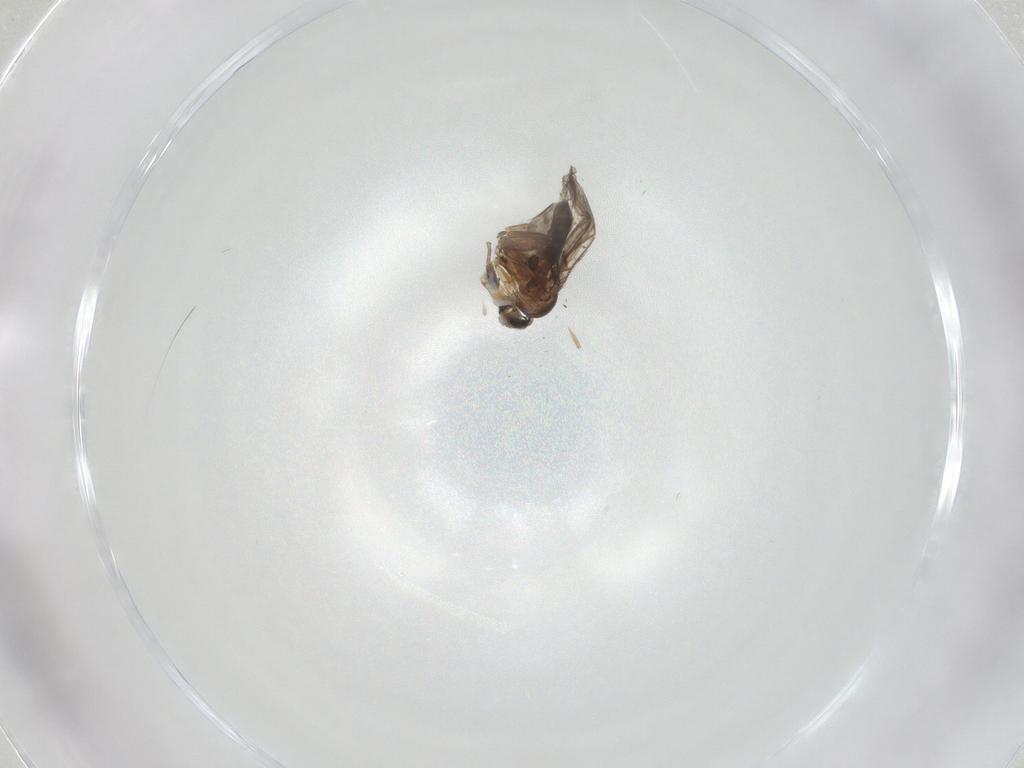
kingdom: Animalia
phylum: Arthropoda
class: Insecta
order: Diptera
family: Phoridae
